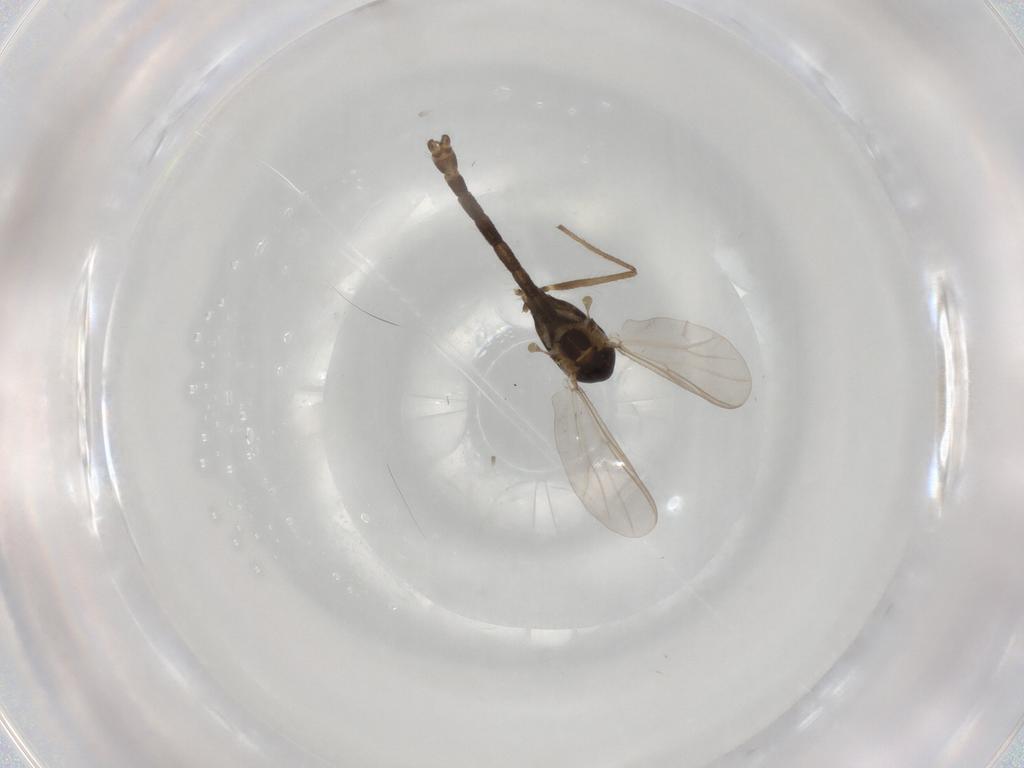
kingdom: Animalia
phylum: Arthropoda
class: Insecta
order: Diptera
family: Chironomidae
